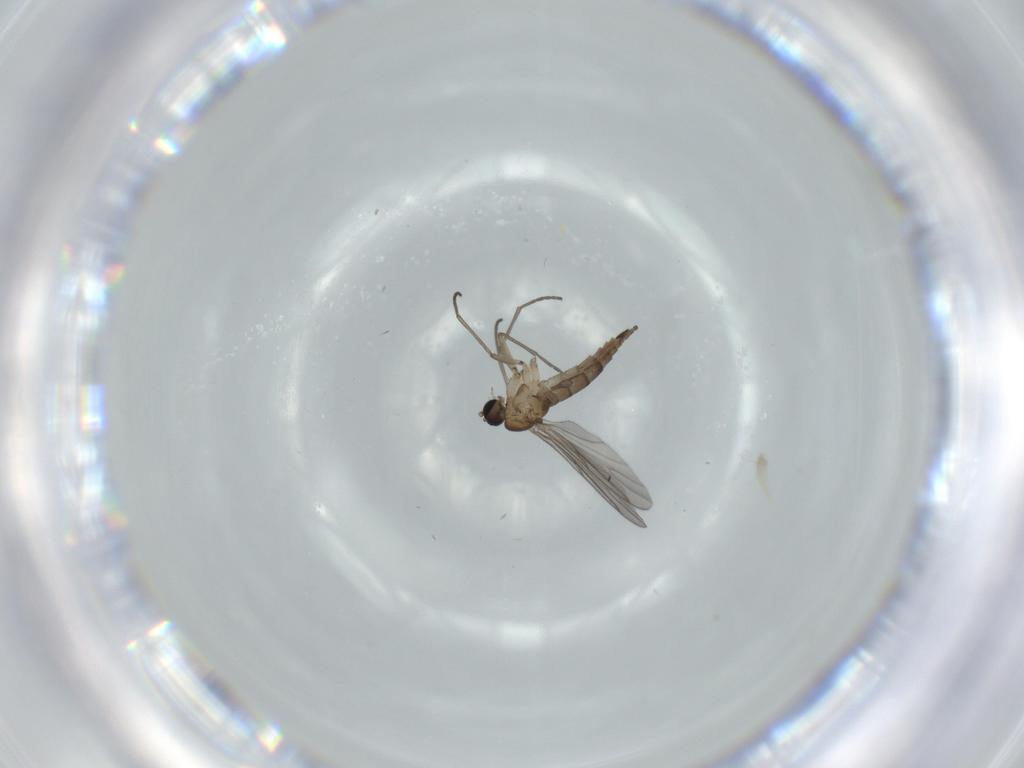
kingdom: Animalia
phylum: Arthropoda
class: Insecta
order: Diptera
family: Sciaridae
